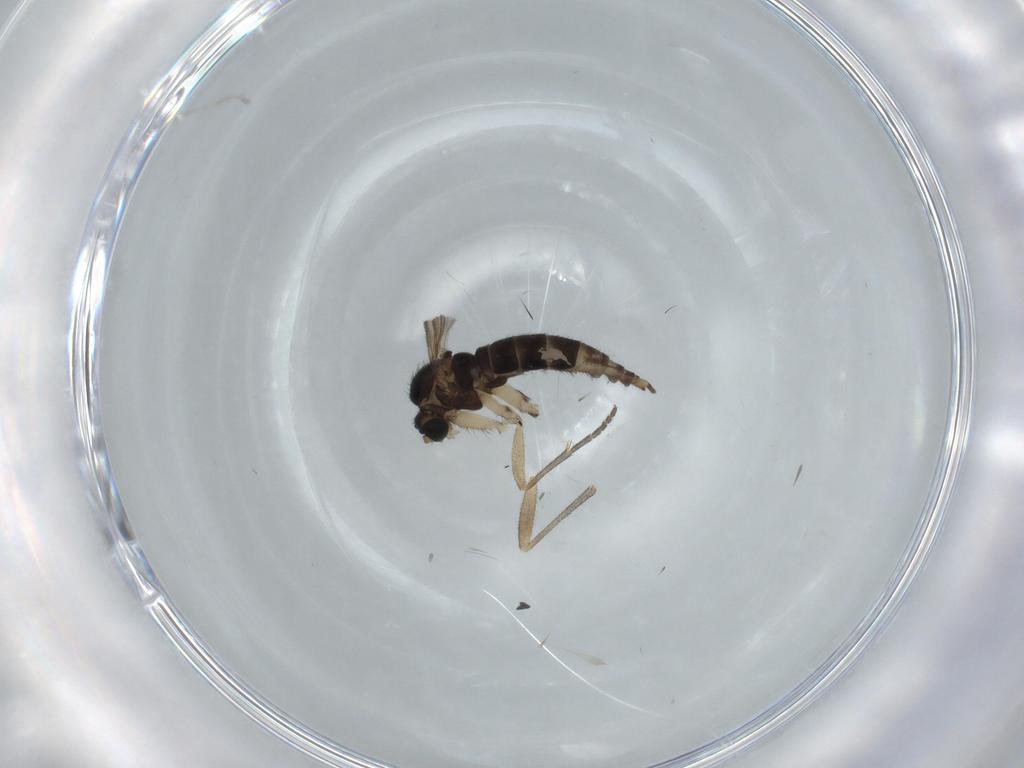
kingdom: Animalia
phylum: Arthropoda
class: Insecta
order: Diptera
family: Sciaridae
